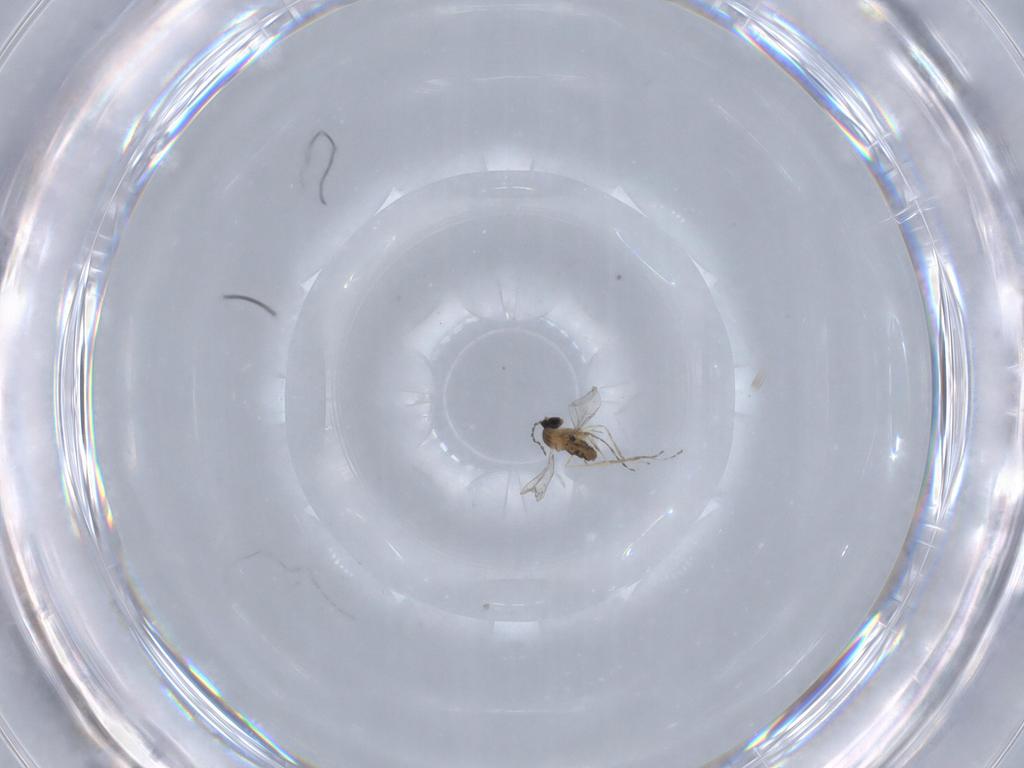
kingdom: Animalia
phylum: Arthropoda
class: Insecta
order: Diptera
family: Cecidomyiidae
